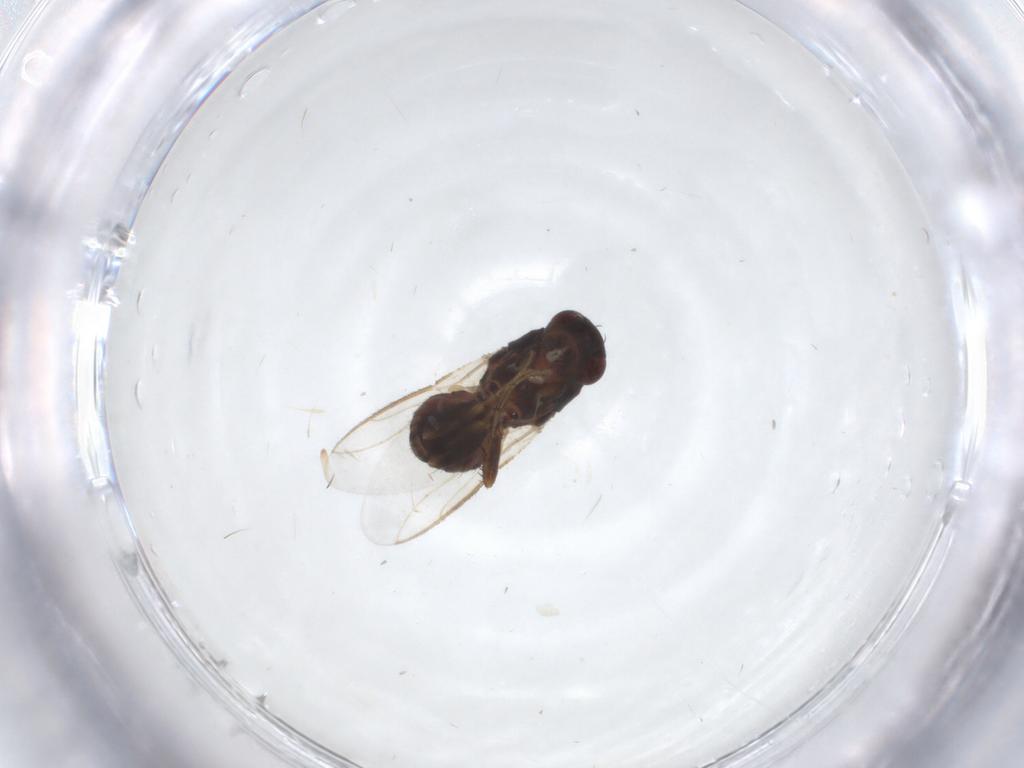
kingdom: Animalia
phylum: Arthropoda
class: Insecta
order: Diptera
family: Sphaeroceridae
